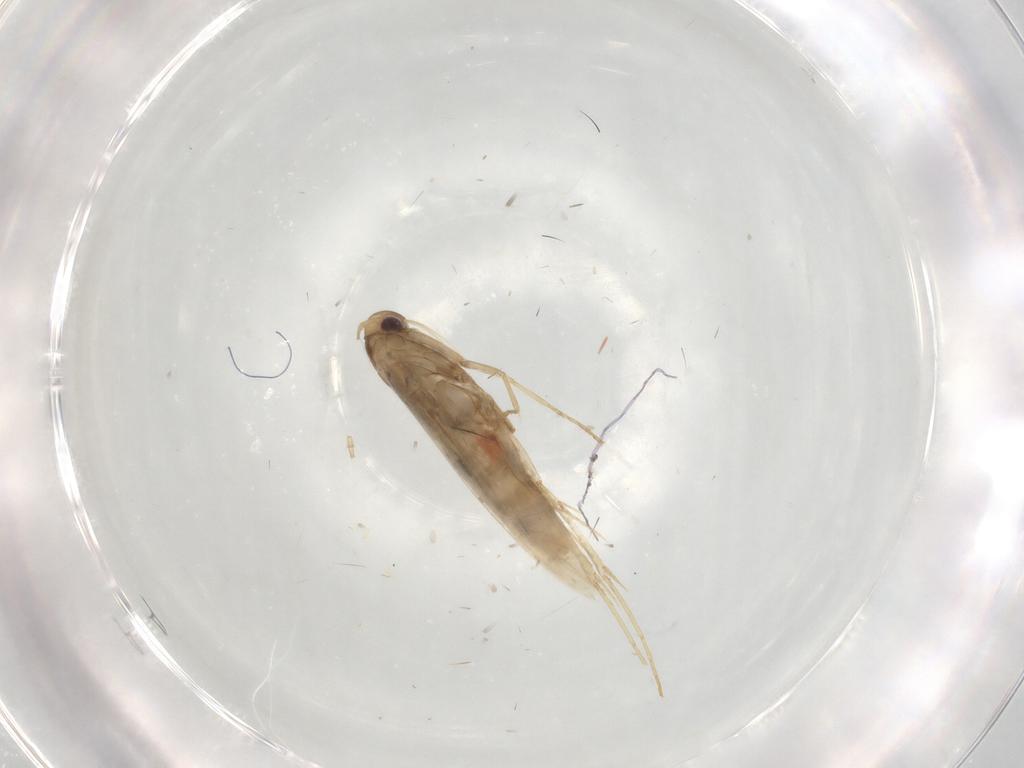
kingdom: Animalia
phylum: Arthropoda
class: Insecta
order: Lepidoptera
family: Gracillariidae
